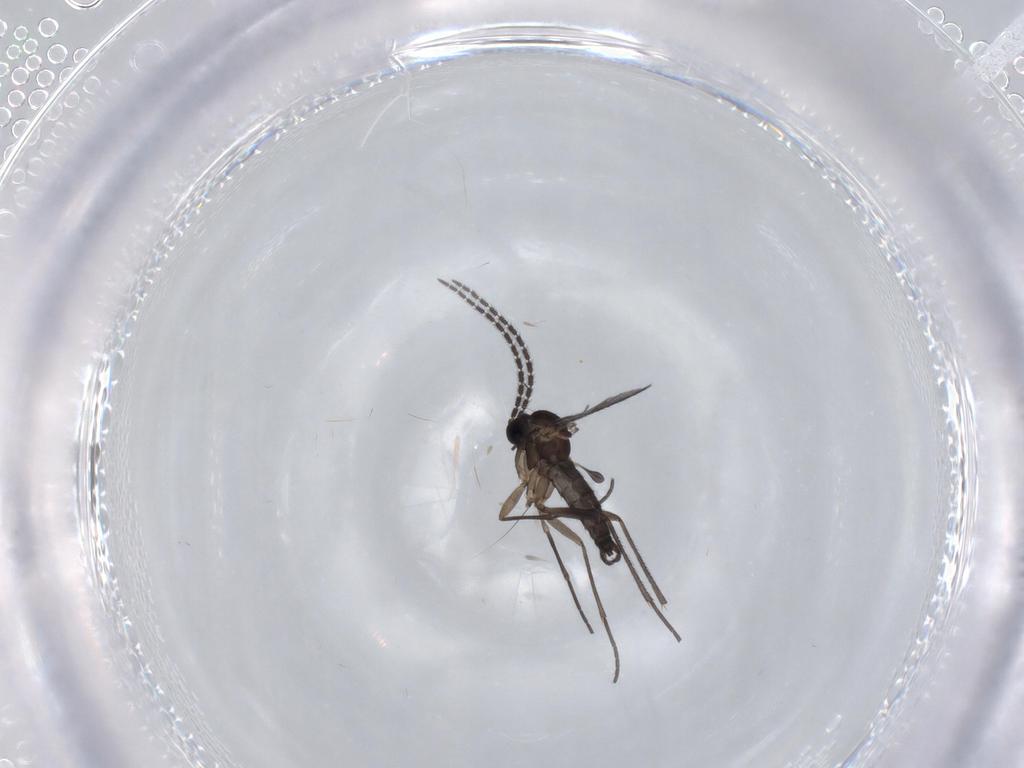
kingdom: Animalia
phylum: Arthropoda
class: Insecta
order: Diptera
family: Sciaridae
